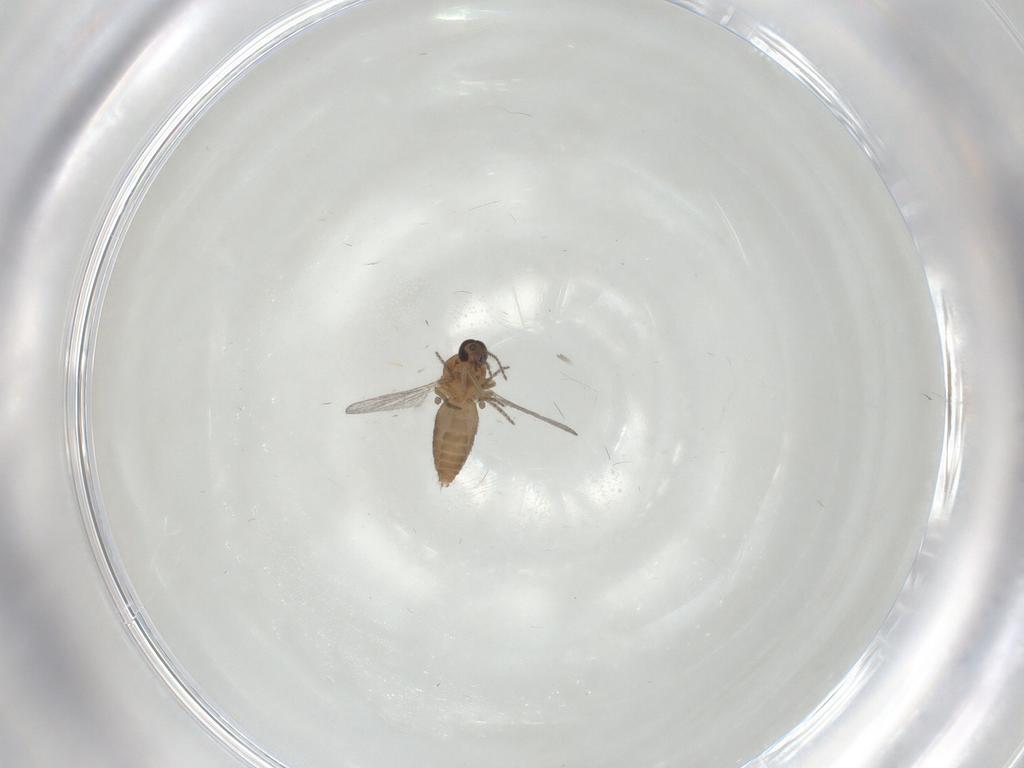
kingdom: Animalia
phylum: Arthropoda
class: Insecta
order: Diptera
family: Ceratopogonidae
